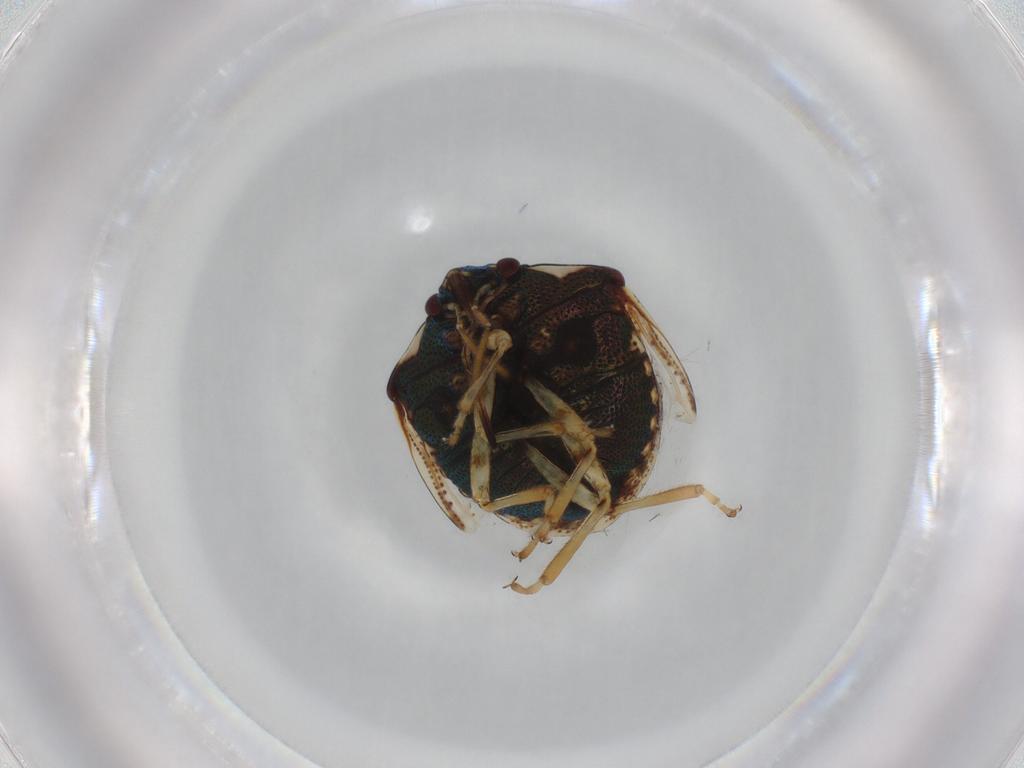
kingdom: Animalia
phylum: Arthropoda
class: Insecta
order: Hemiptera
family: Pentatomidae
